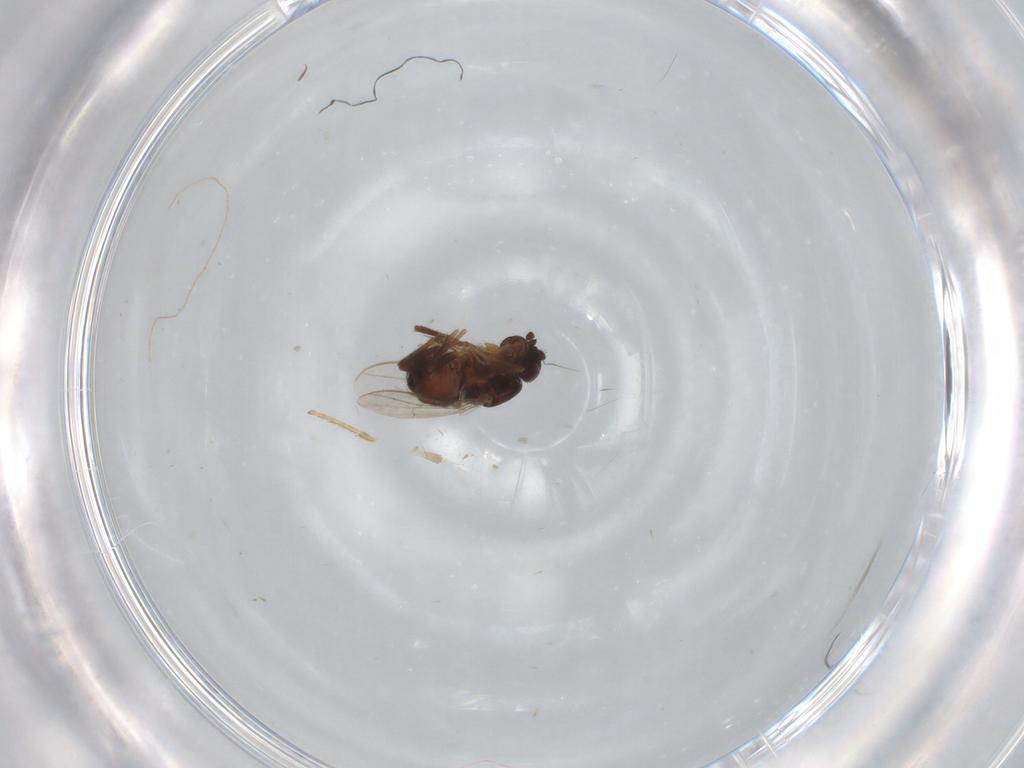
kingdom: Animalia
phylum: Arthropoda
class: Insecta
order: Diptera
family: Sphaeroceridae
